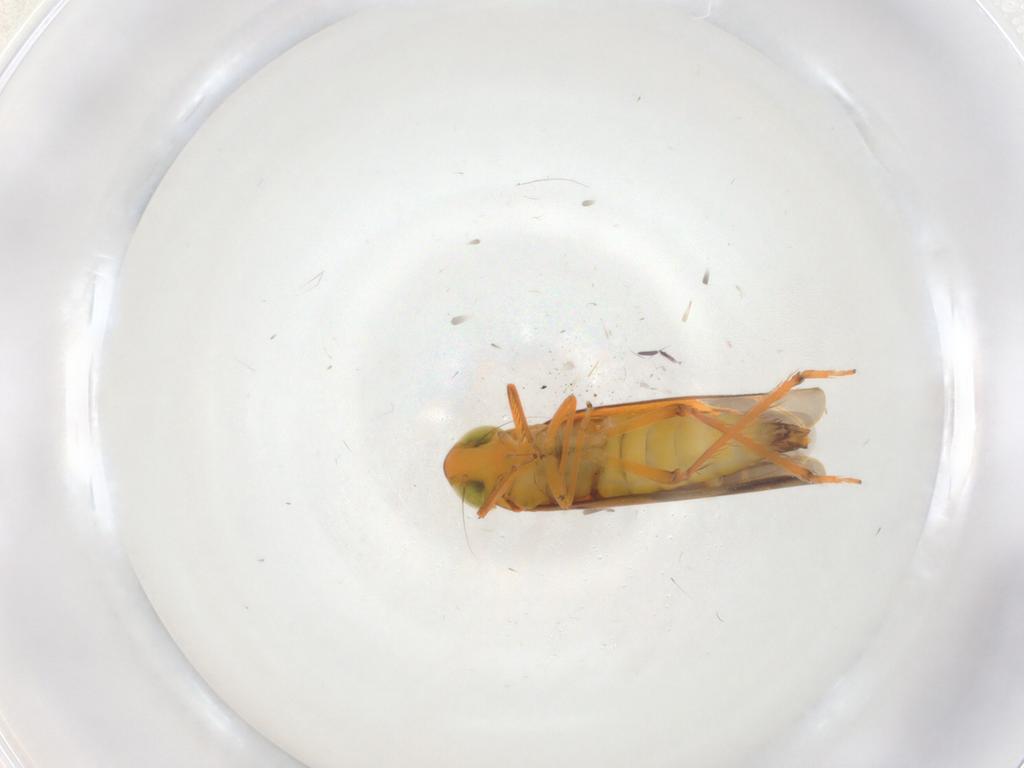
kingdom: Animalia
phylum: Arthropoda
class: Insecta
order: Hemiptera
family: Cicadellidae
